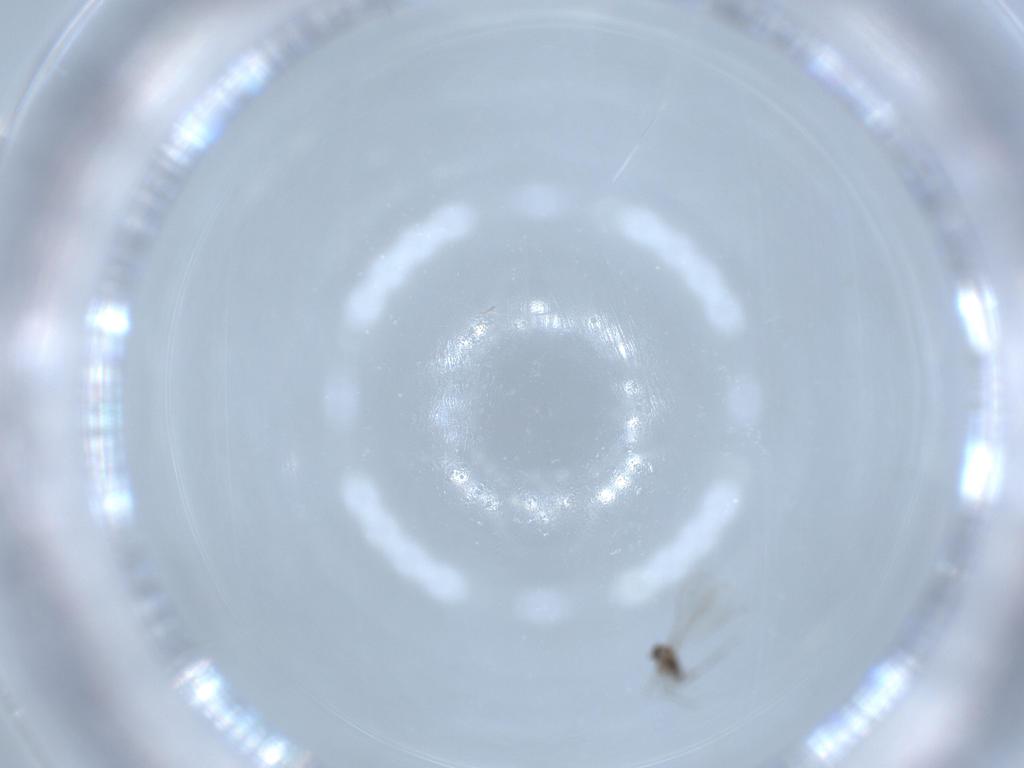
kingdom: Animalia
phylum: Arthropoda
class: Insecta
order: Diptera
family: Cecidomyiidae
